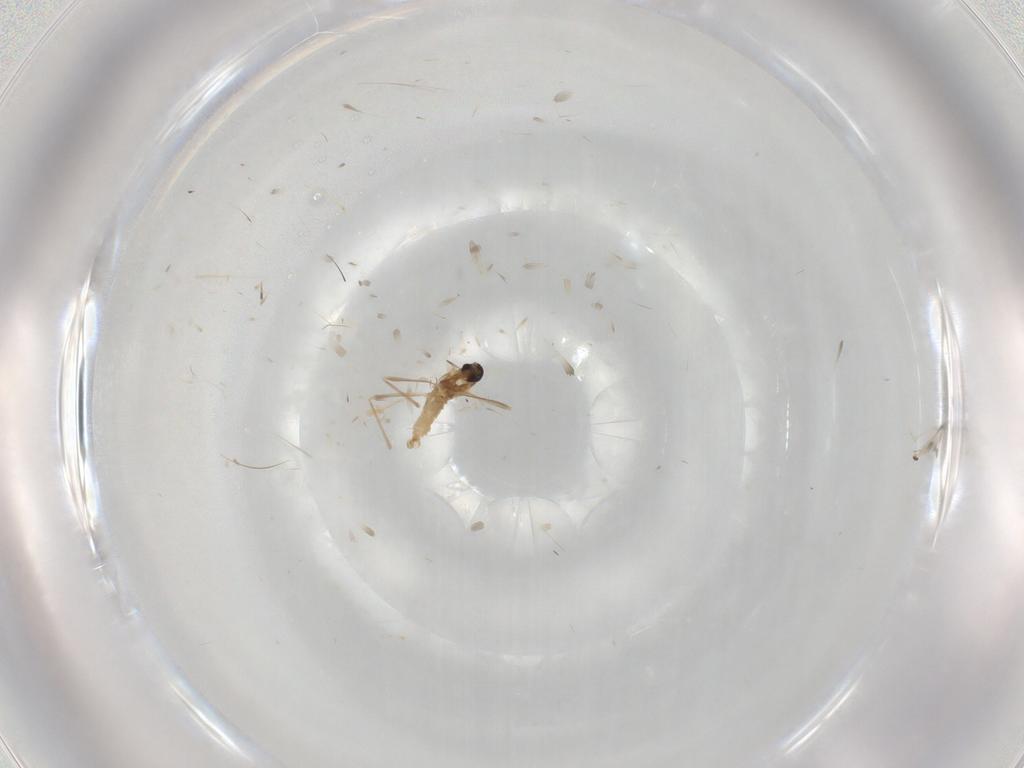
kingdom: Animalia
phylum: Arthropoda
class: Insecta
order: Diptera
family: Cecidomyiidae
